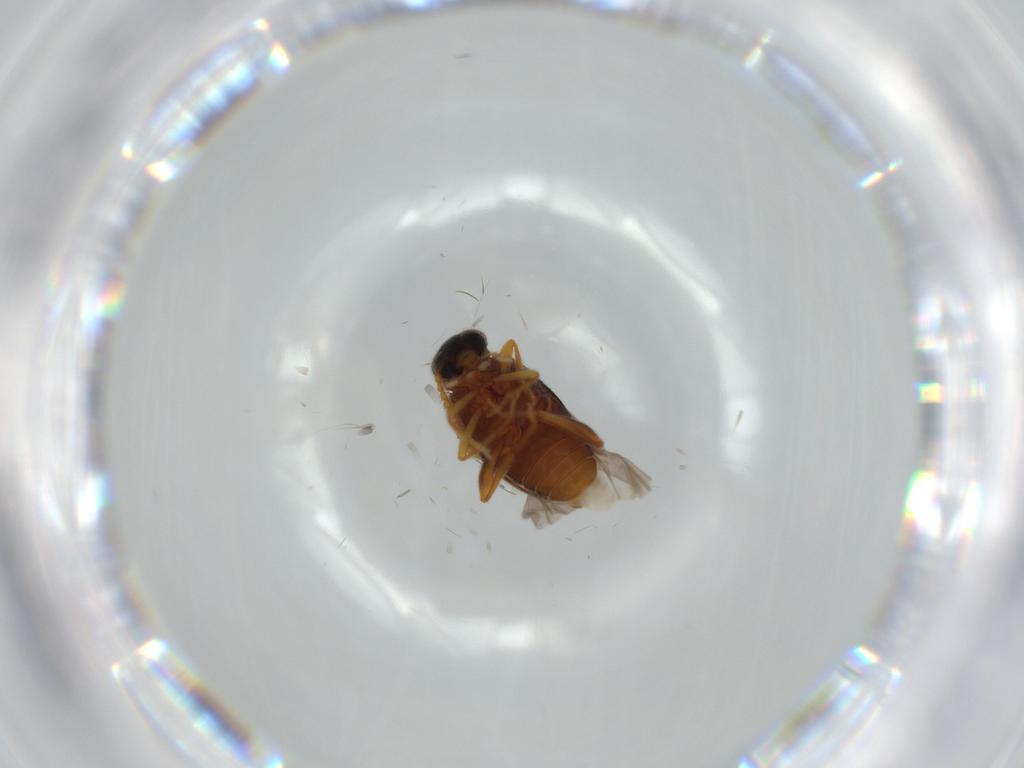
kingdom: Animalia
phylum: Arthropoda
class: Insecta
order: Coleoptera
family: Aderidae
